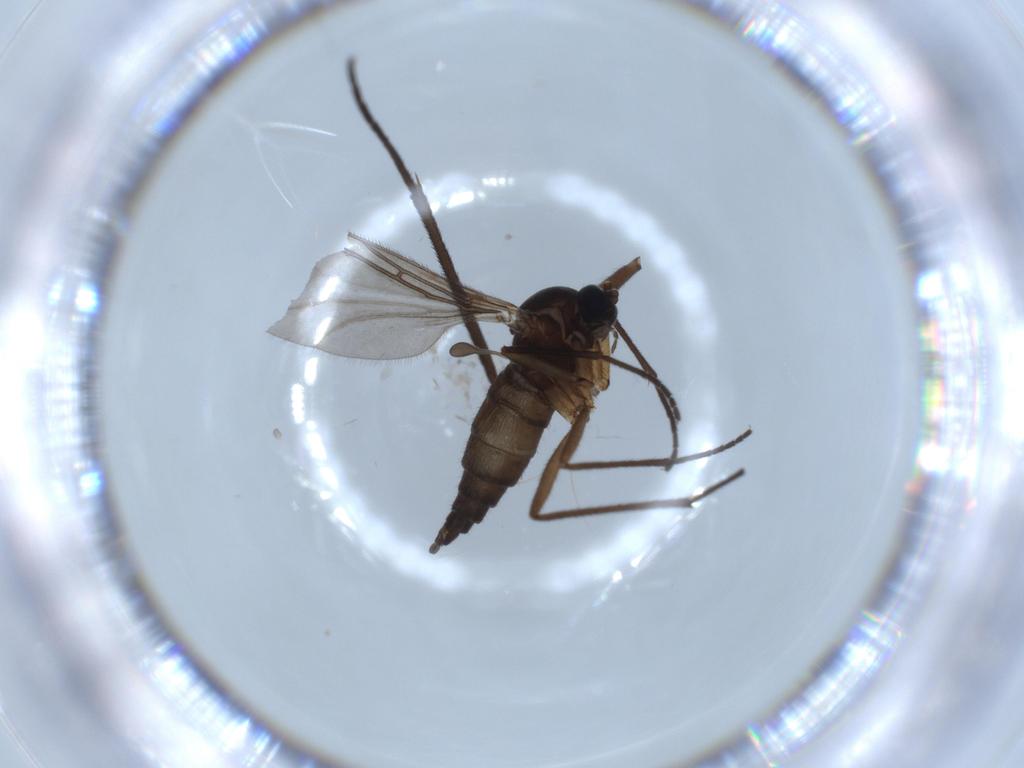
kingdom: Animalia
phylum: Arthropoda
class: Insecta
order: Diptera
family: Sciaridae
